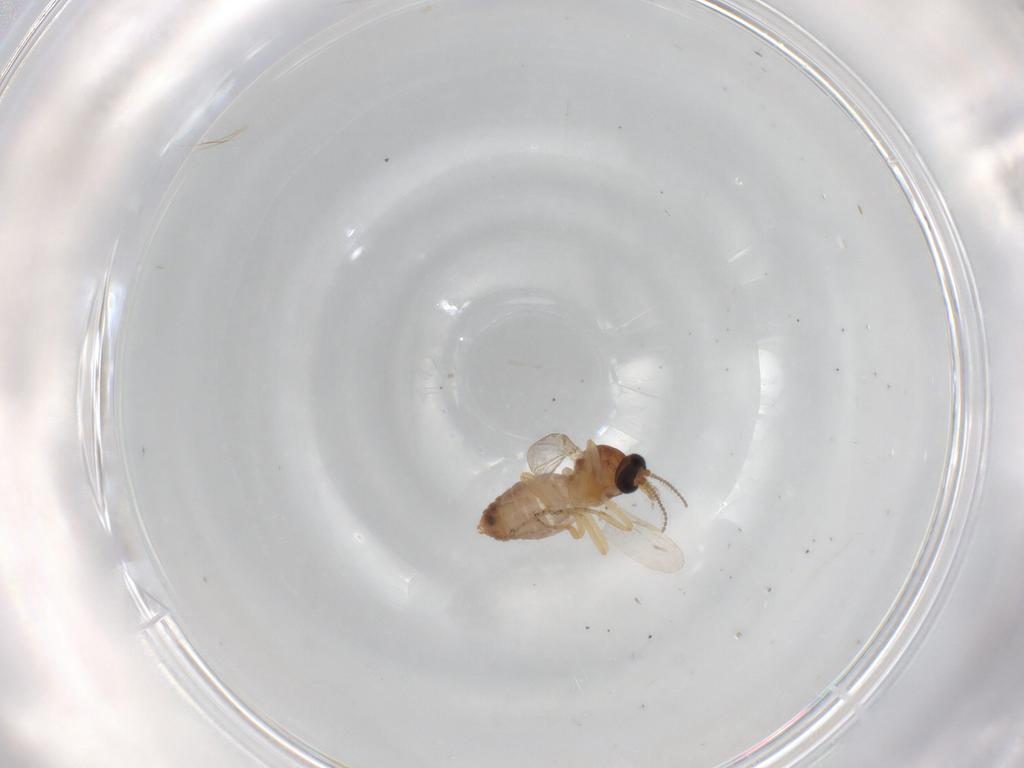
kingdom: Animalia
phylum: Arthropoda
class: Insecta
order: Diptera
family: Ceratopogonidae
